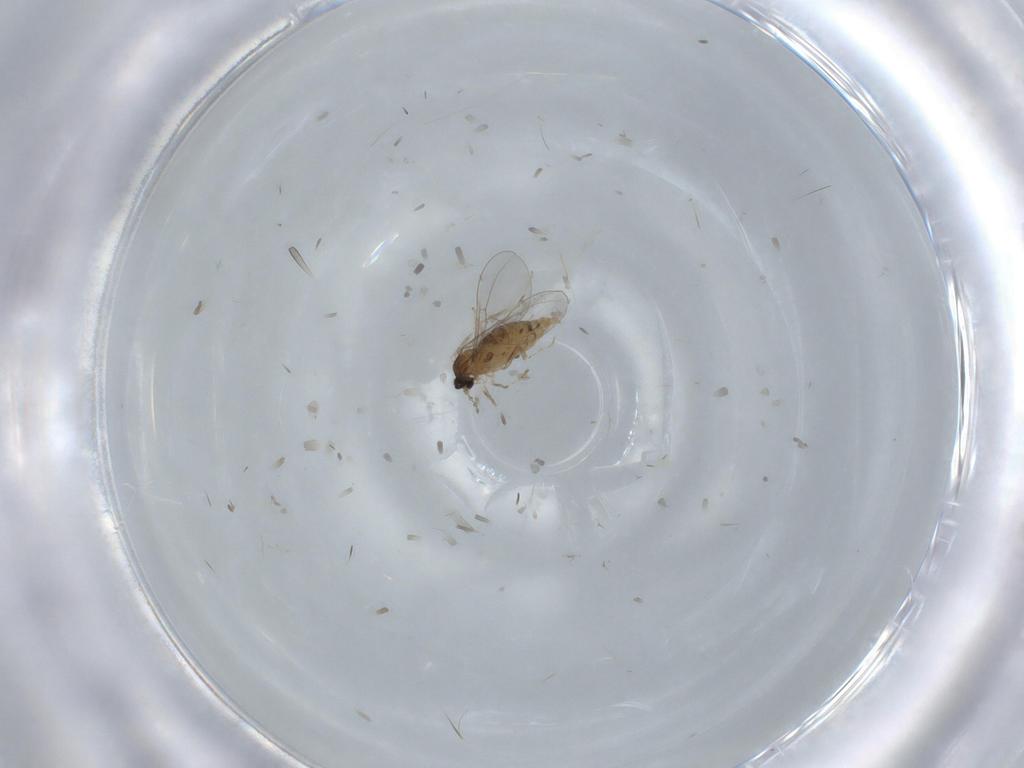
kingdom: Animalia
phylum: Arthropoda
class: Insecta
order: Diptera
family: Cecidomyiidae
